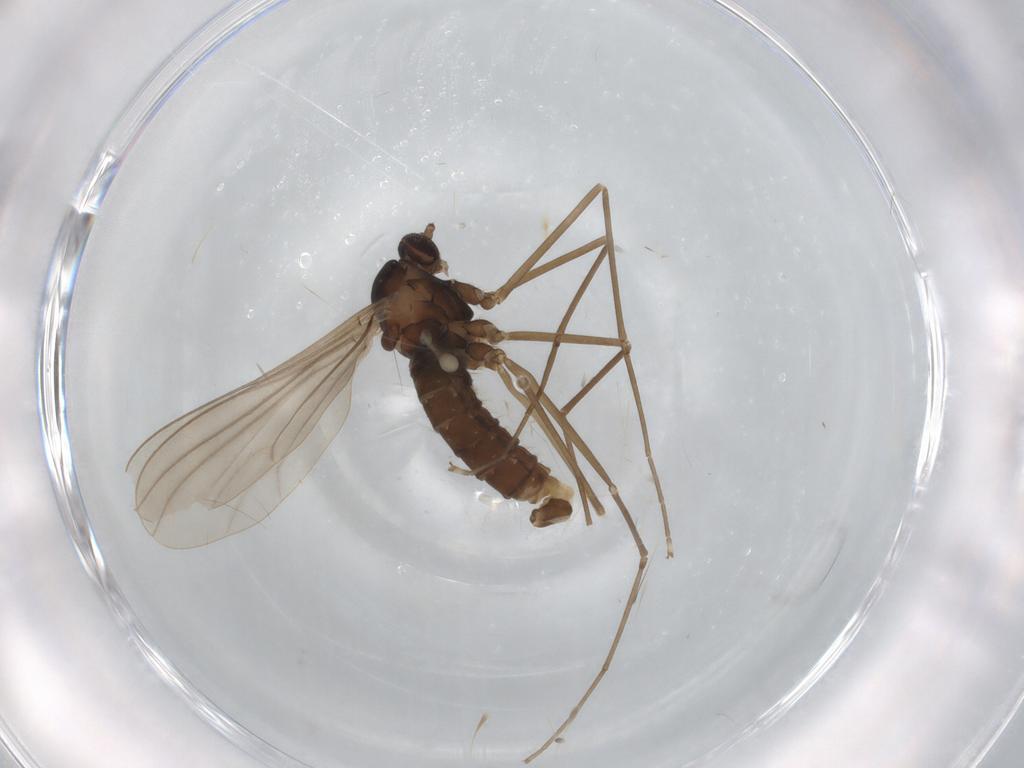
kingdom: Animalia
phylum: Arthropoda
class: Insecta
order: Diptera
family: Cecidomyiidae
